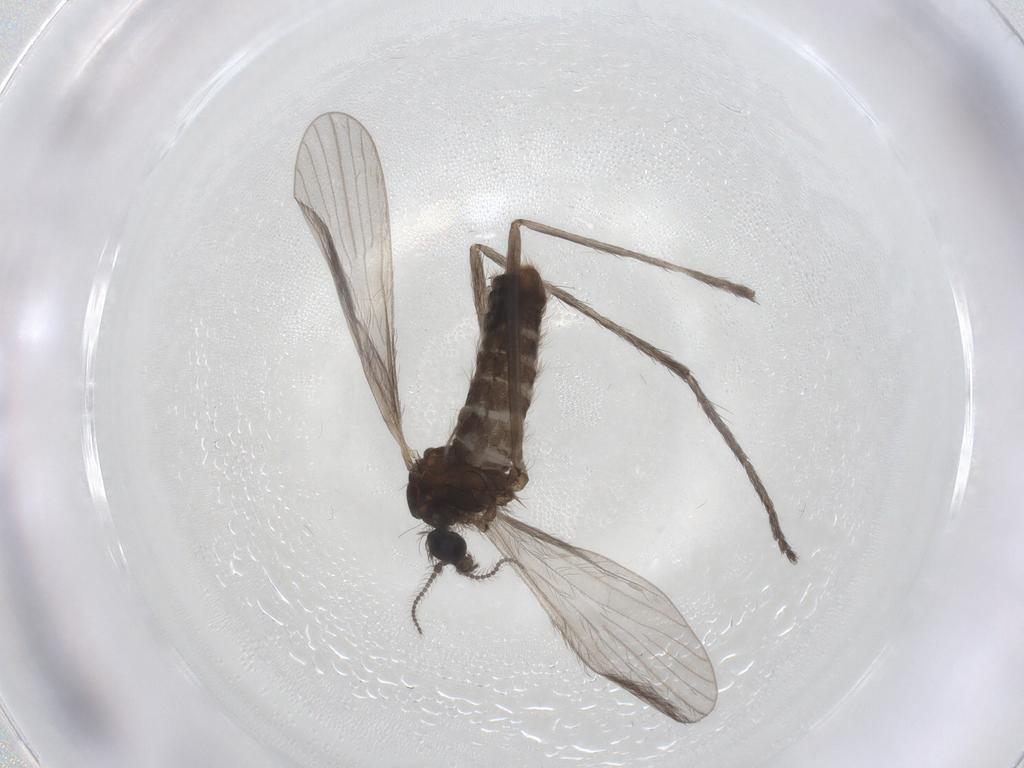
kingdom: Animalia
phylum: Arthropoda
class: Insecta
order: Diptera
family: Limoniidae
